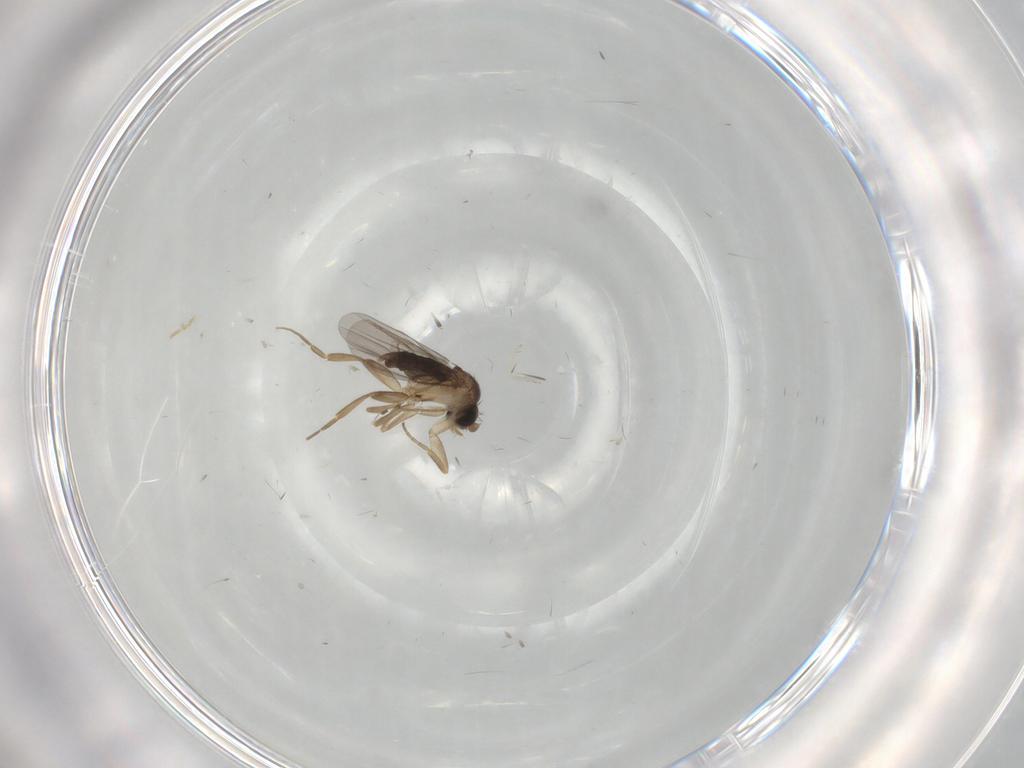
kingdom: Animalia
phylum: Arthropoda
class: Insecta
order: Diptera
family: Phoridae
